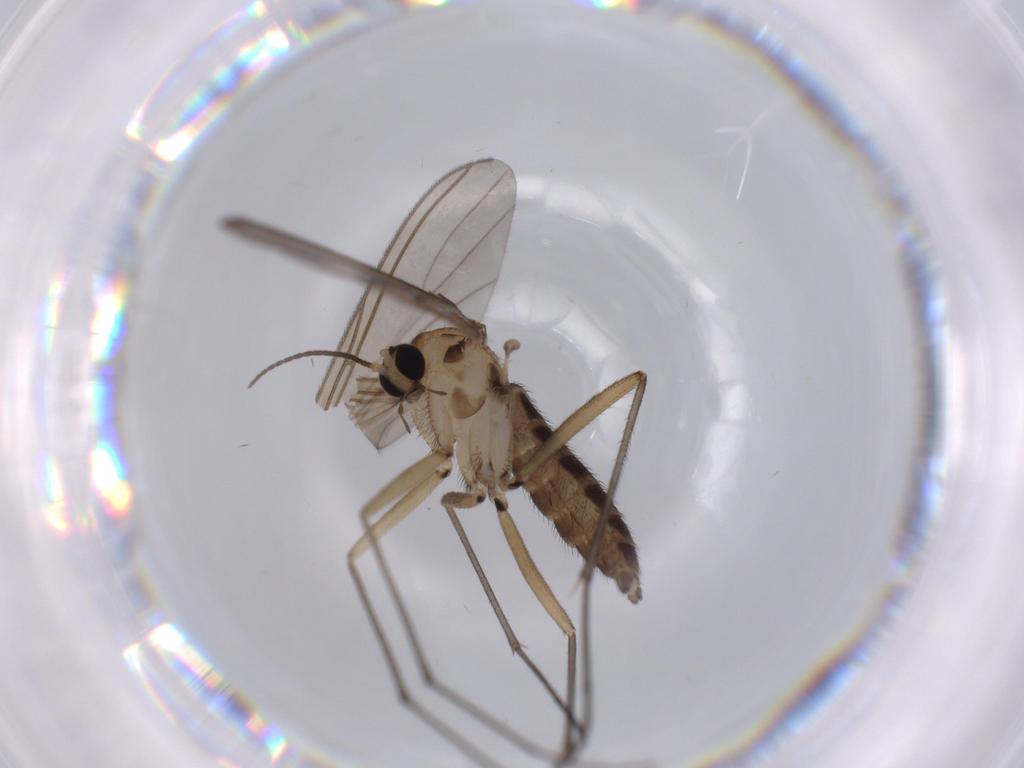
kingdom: Animalia
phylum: Arthropoda
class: Insecta
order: Diptera
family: Sciaridae
